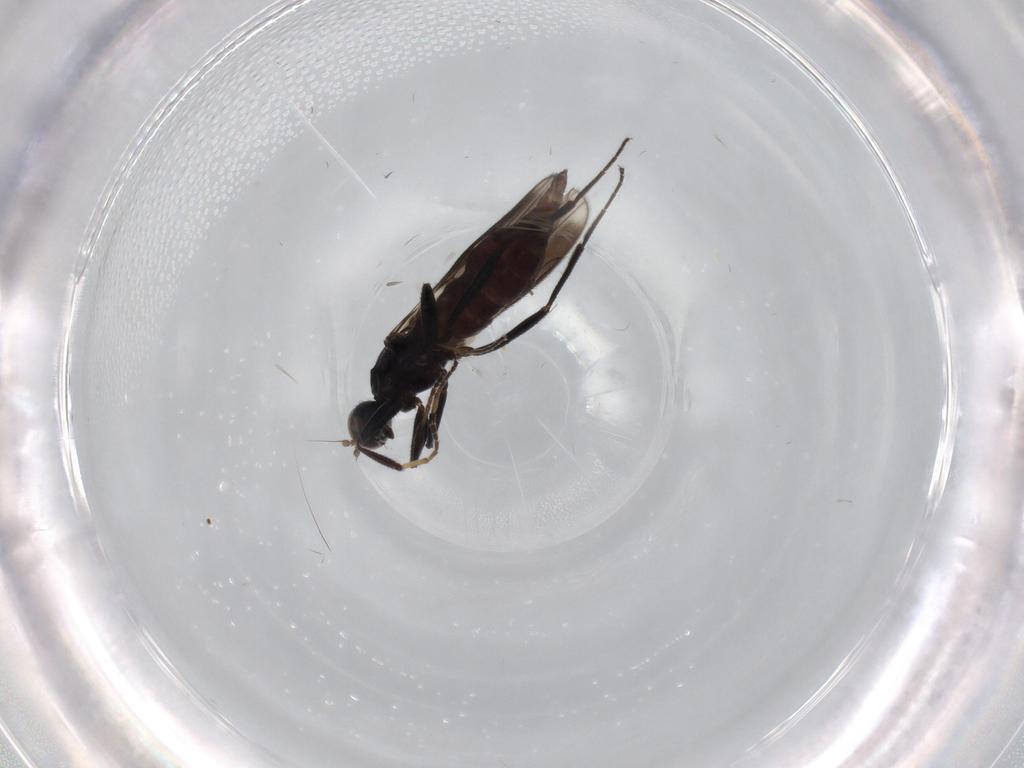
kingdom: Animalia
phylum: Arthropoda
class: Insecta
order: Diptera
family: Hybotidae
